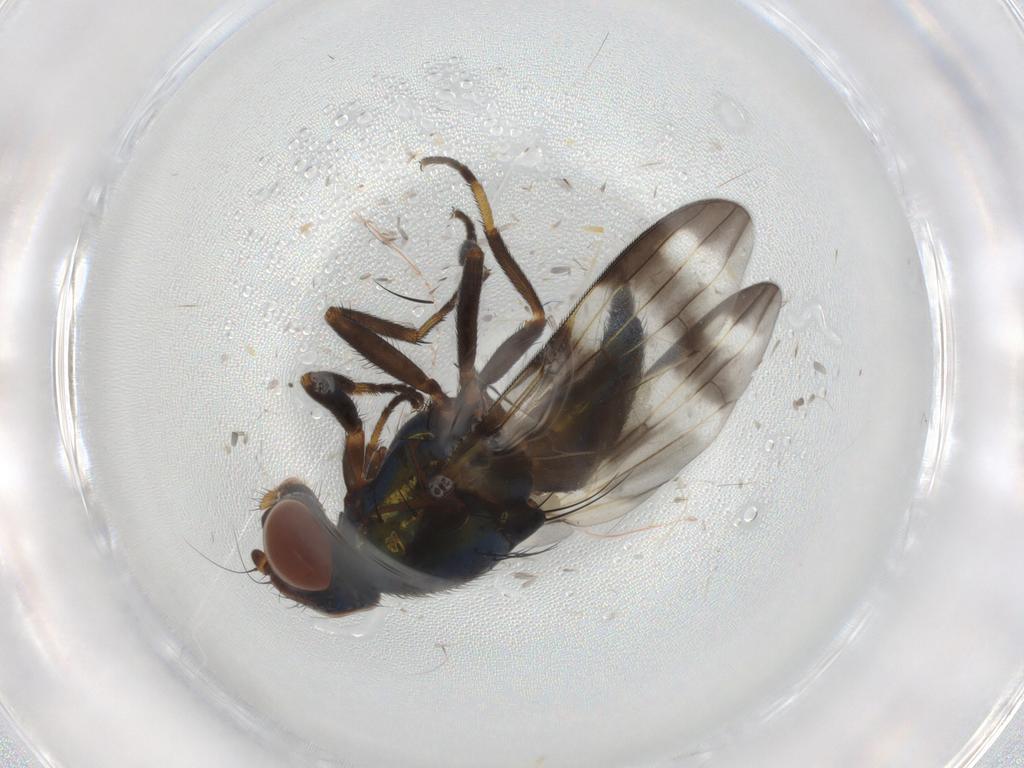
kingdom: Animalia
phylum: Arthropoda
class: Insecta
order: Diptera
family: Ulidiidae
